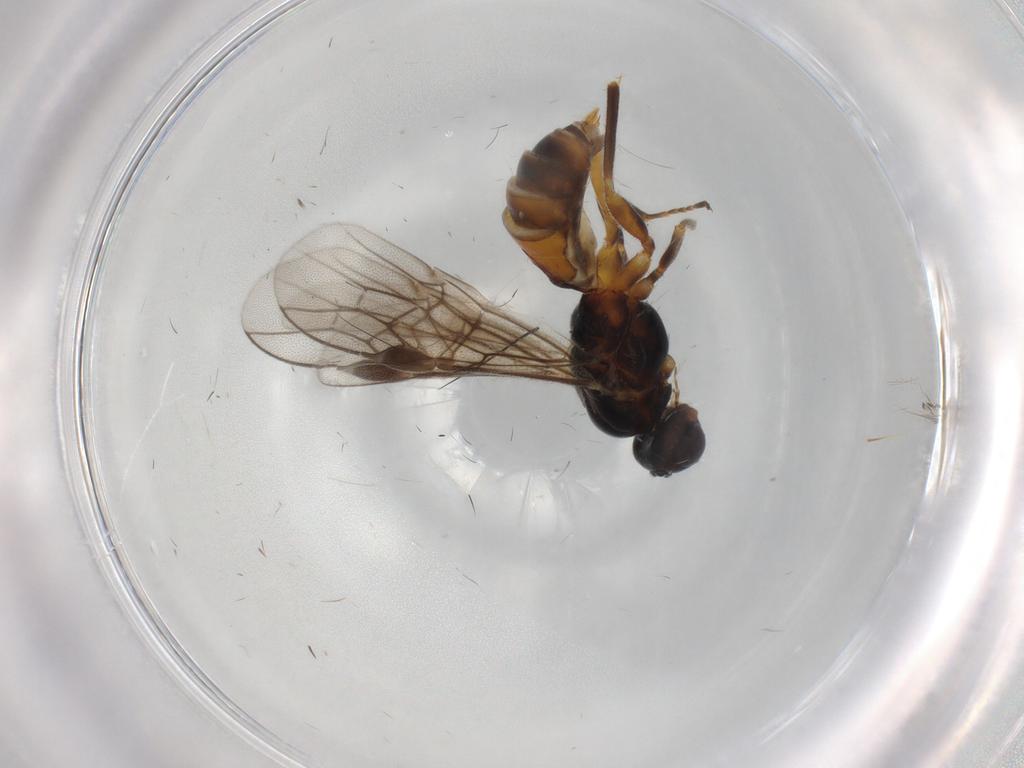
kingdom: Animalia
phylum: Arthropoda
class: Insecta
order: Hymenoptera
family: Braconidae
